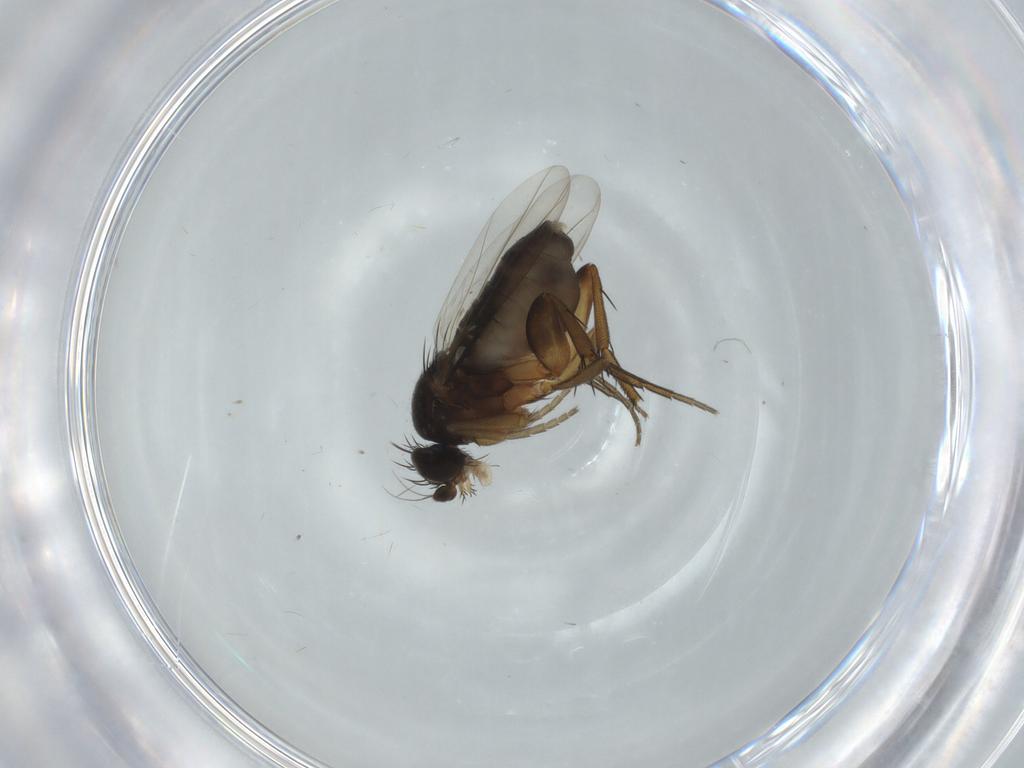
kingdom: Animalia
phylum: Arthropoda
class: Insecta
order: Diptera
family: Phoridae
